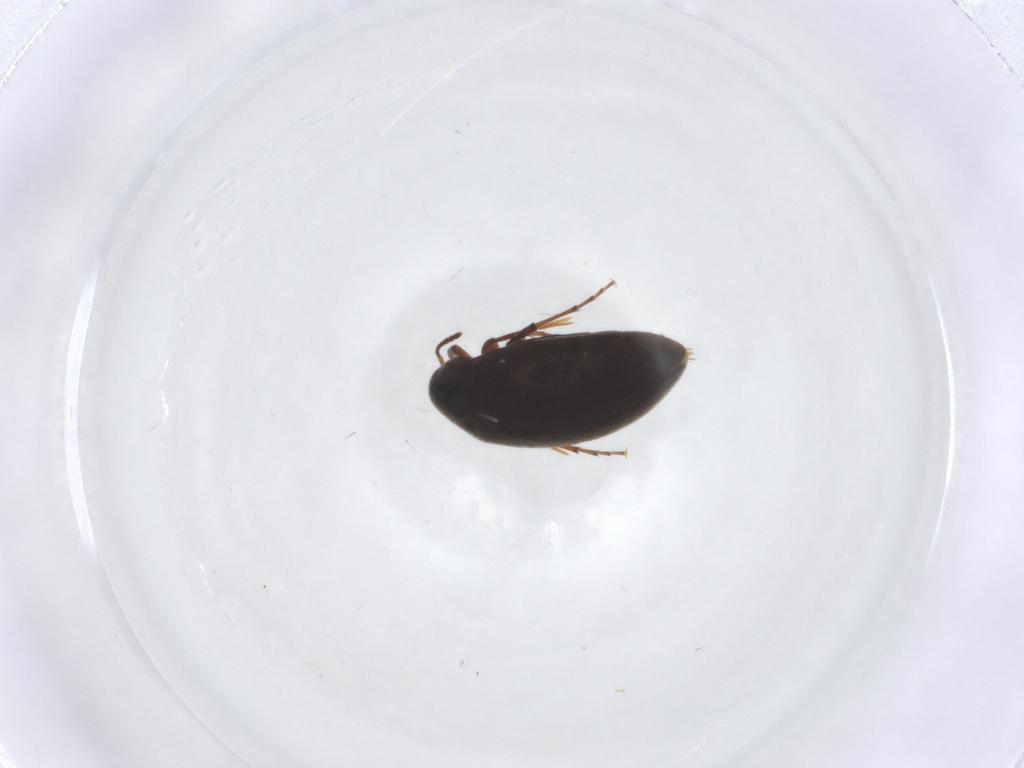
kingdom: Animalia
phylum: Arthropoda
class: Insecta
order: Coleoptera
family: Melandryidae
